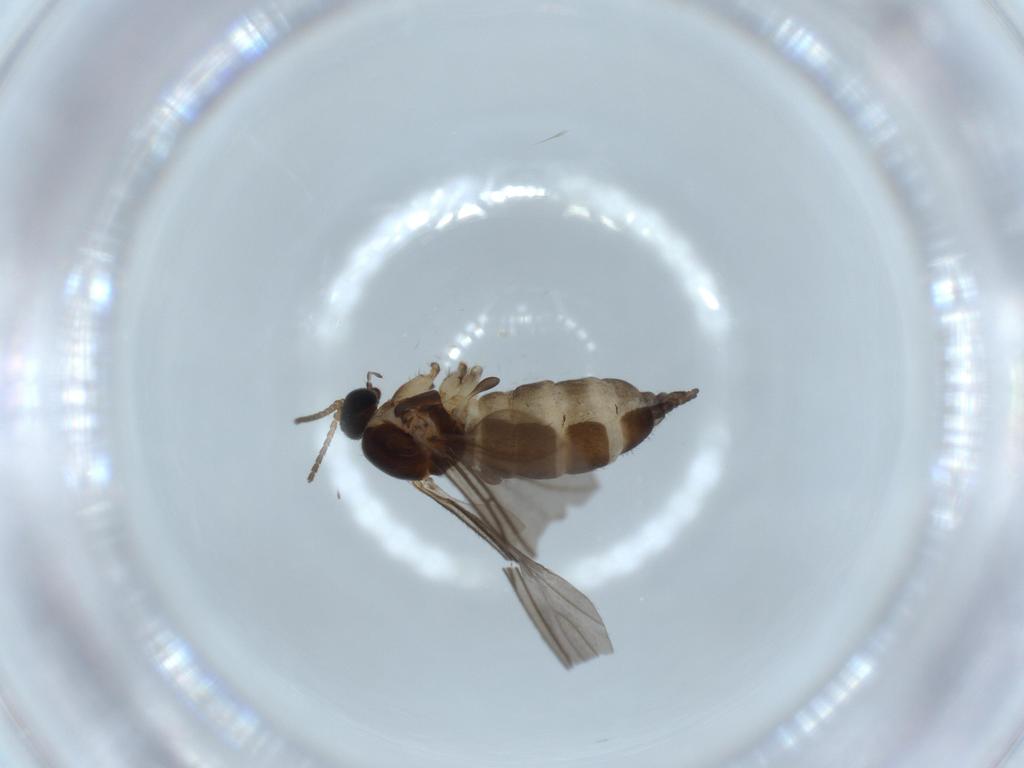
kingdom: Animalia
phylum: Arthropoda
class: Insecta
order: Diptera
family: Sciaridae
